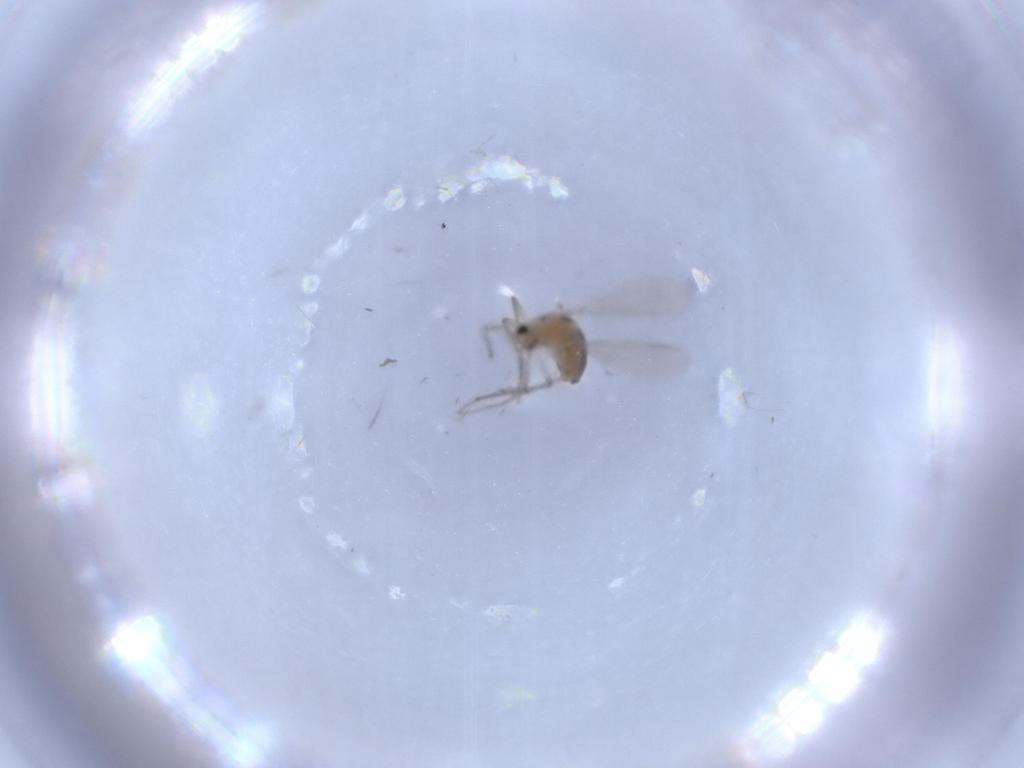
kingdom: Animalia
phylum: Arthropoda
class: Insecta
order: Diptera
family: Chironomidae
